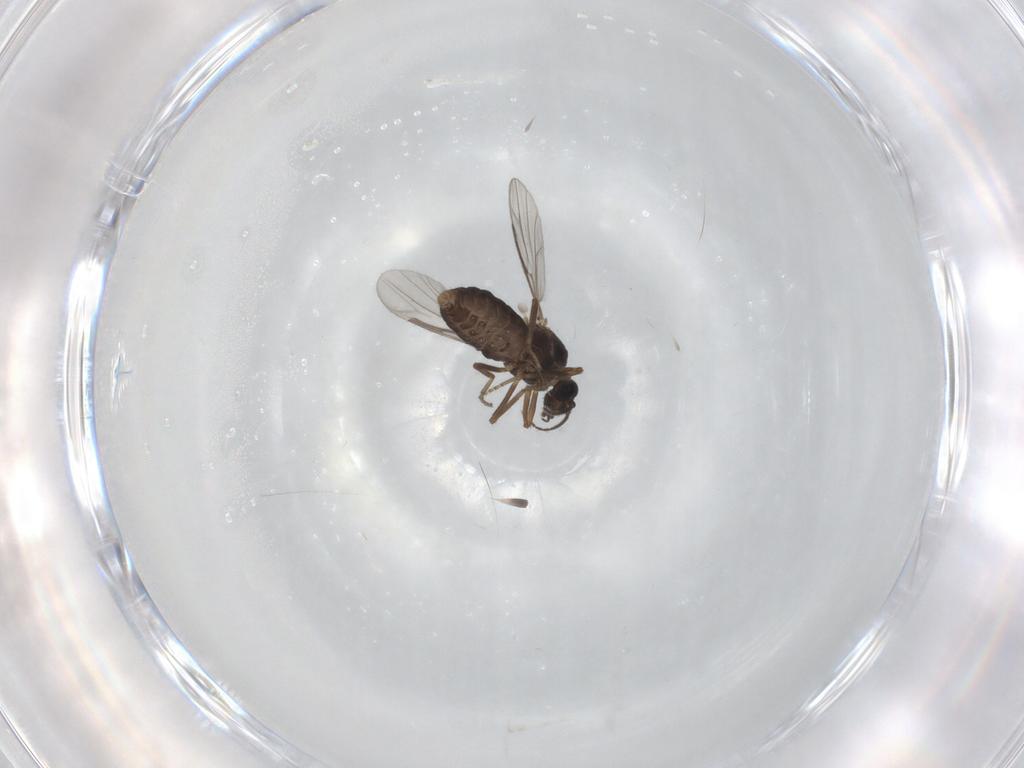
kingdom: Animalia
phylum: Arthropoda
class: Insecta
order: Diptera
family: Ceratopogonidae
